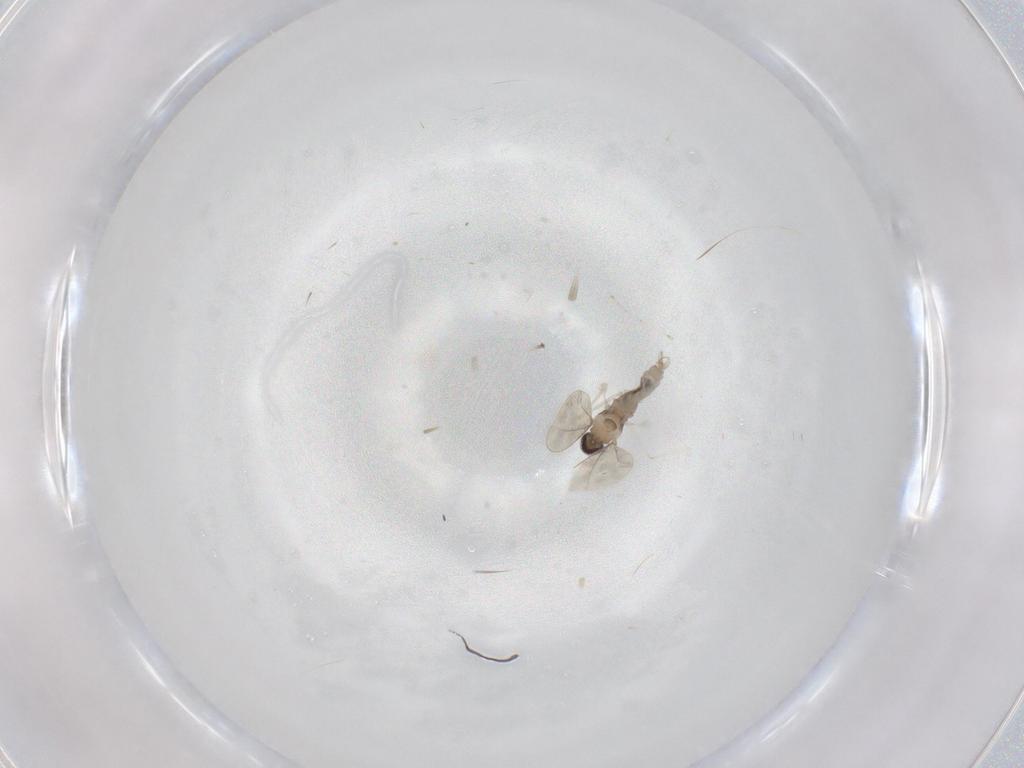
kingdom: Animalia
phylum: Arthropoda
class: Insecta
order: Diptera
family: Cecidomyiidae
